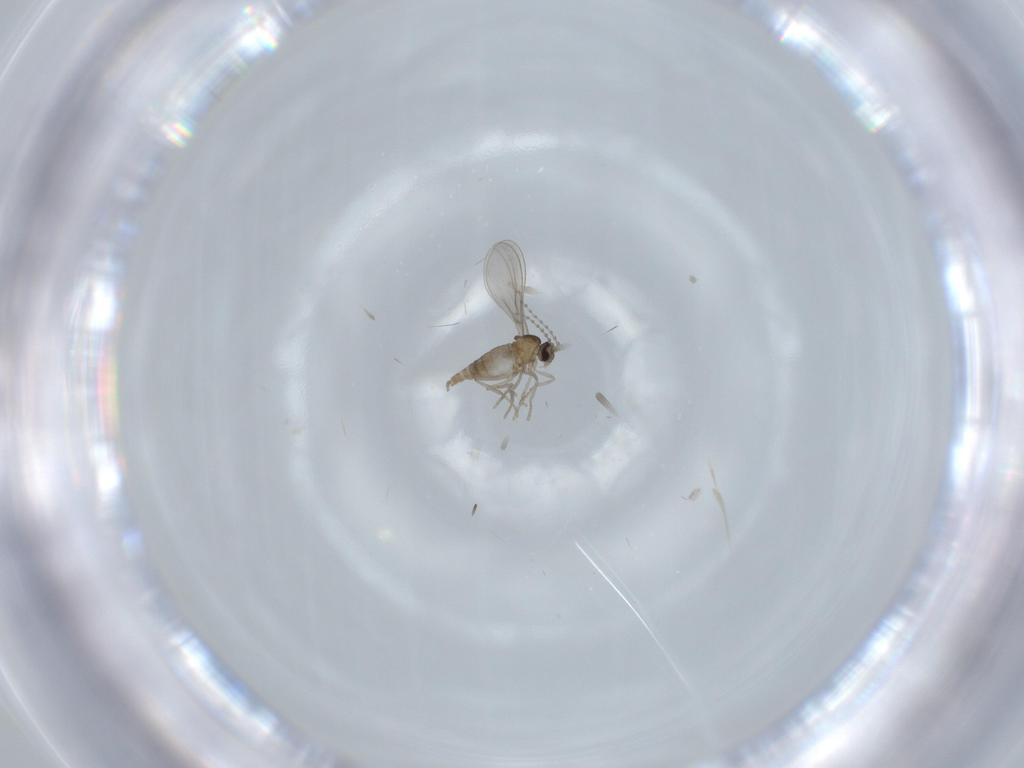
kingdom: Animalia
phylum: Arthropoda
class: Insecta
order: Diptera
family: Cecidomyiidae
